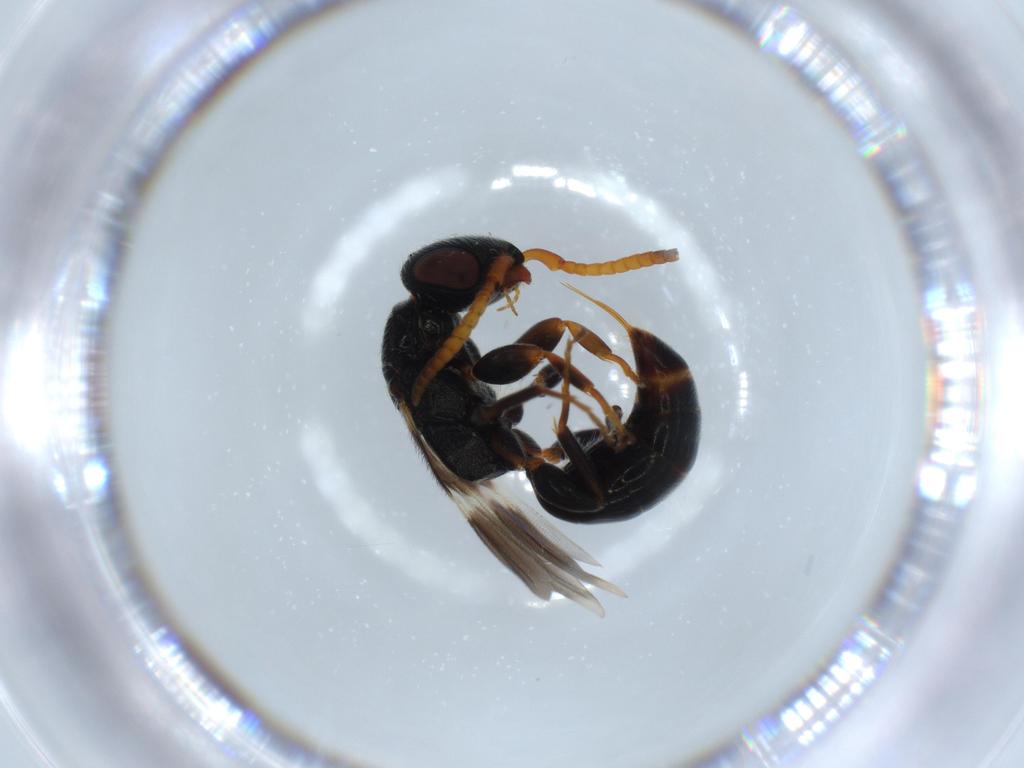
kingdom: Animalia
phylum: Arthropoda
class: Insecta
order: Hymenoptera
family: Bethylidae
